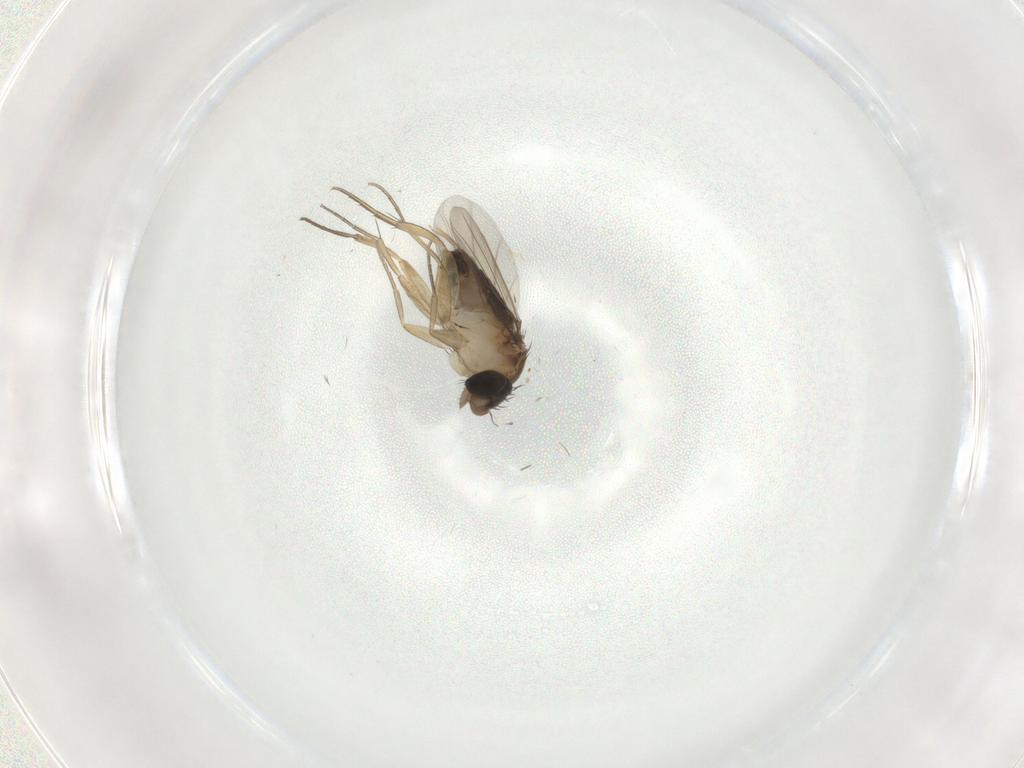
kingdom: Animalia
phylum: Arthropoda
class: Insecta
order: Diptera
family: Phoridae
